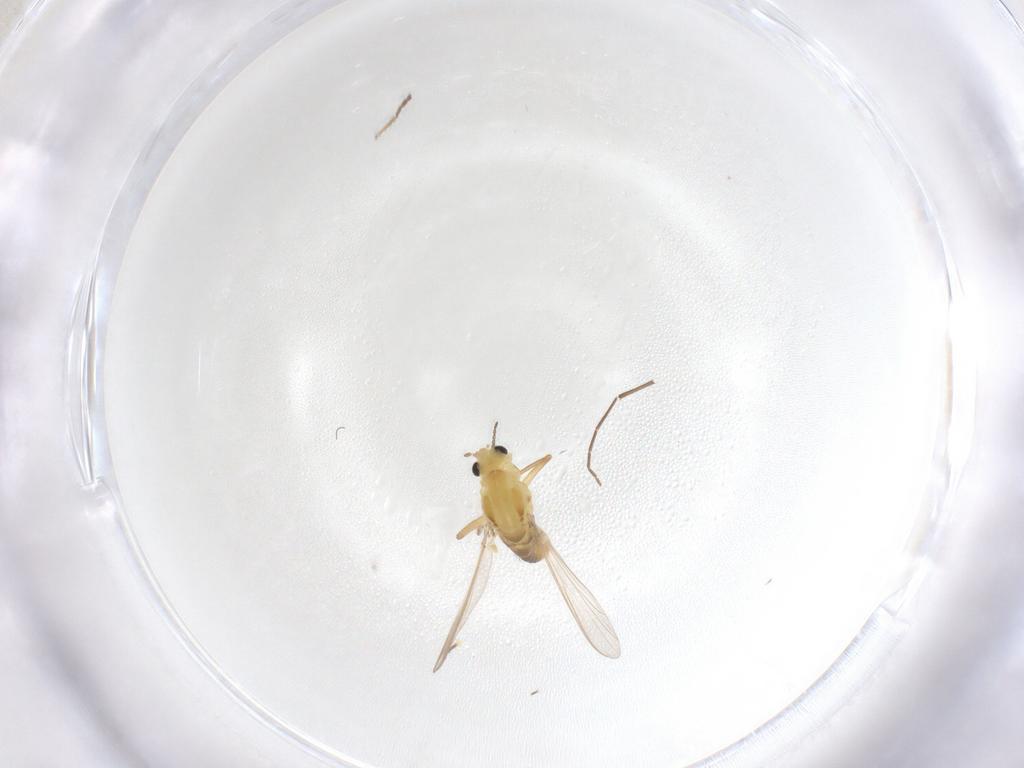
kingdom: Animalia
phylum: Arthropoda
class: Insecta
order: Diptera
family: Chironomidae
